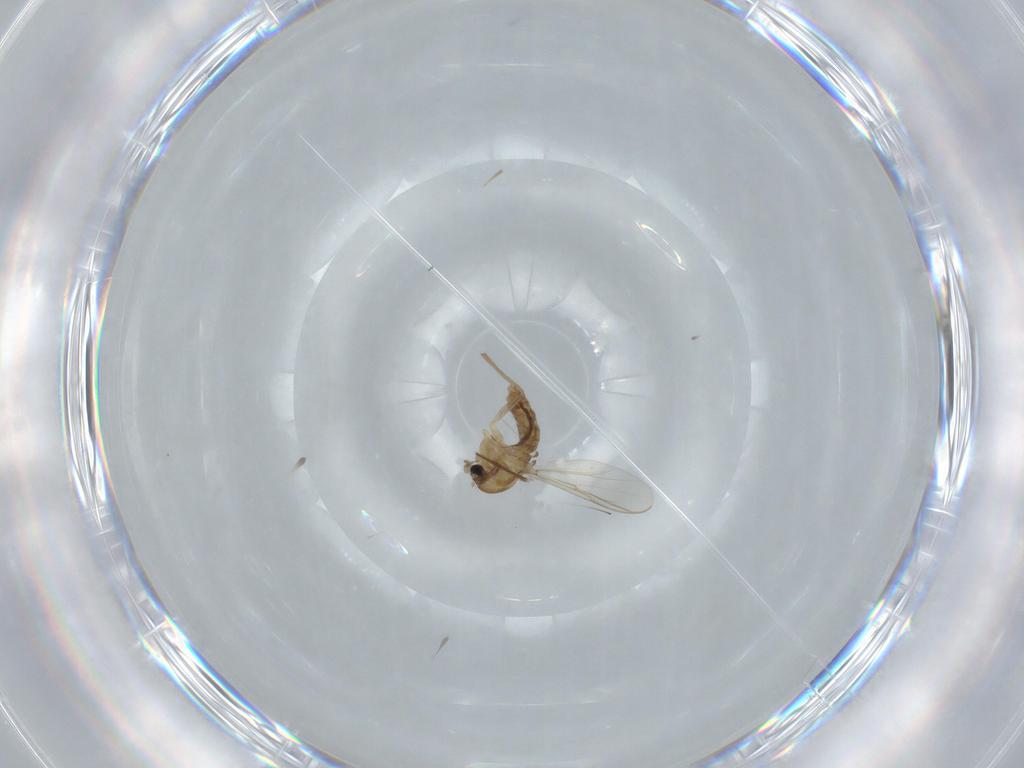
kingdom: Animalia
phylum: Arthropoda
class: Insecta
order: Diptera
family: Chironomidae
